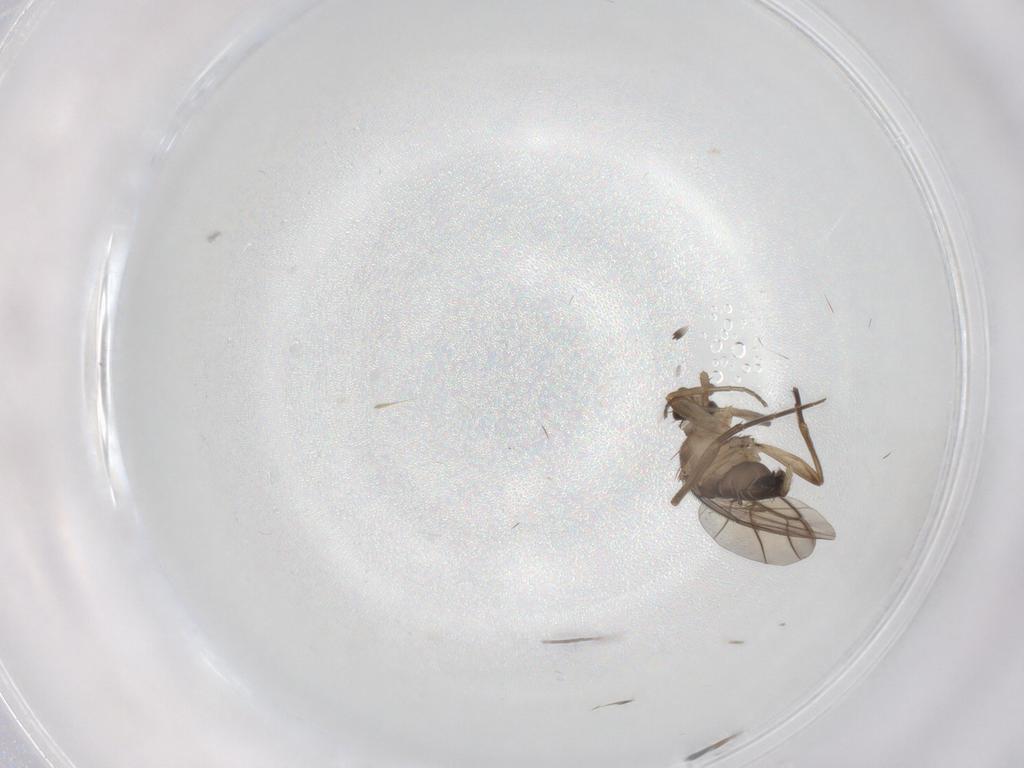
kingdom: Animalia
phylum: Arthropoda
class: Insecta
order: Diptera
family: Phoridae
